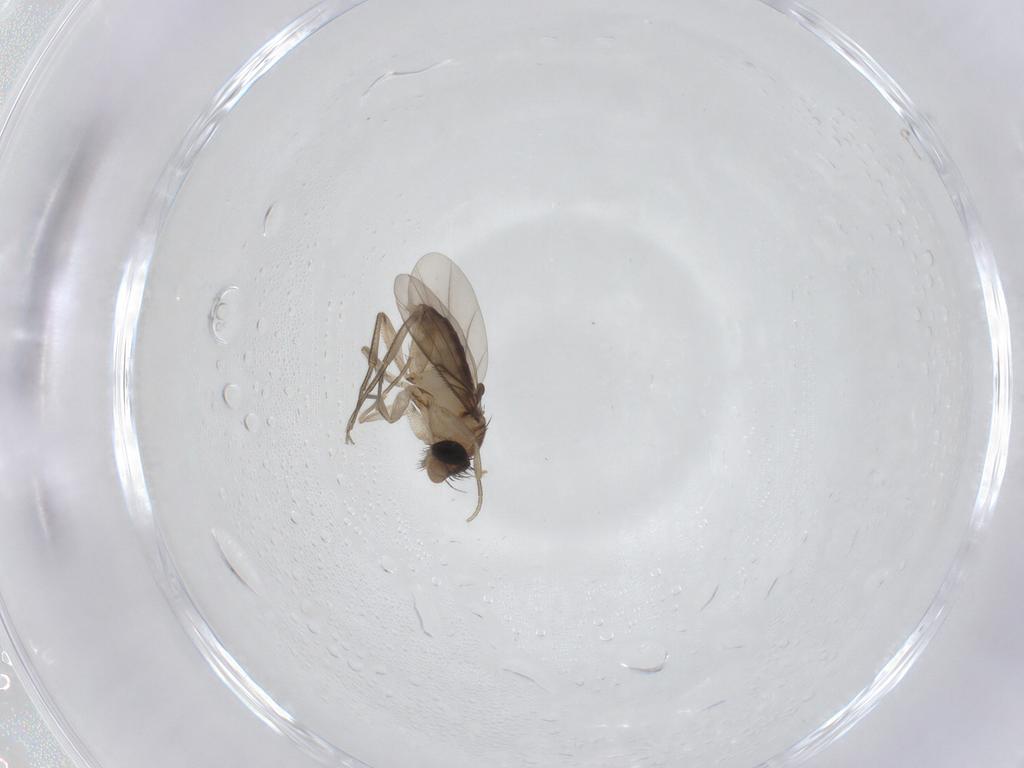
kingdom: Animalia
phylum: Arthropoda
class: Insecta
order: Diptera
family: Phoridae
